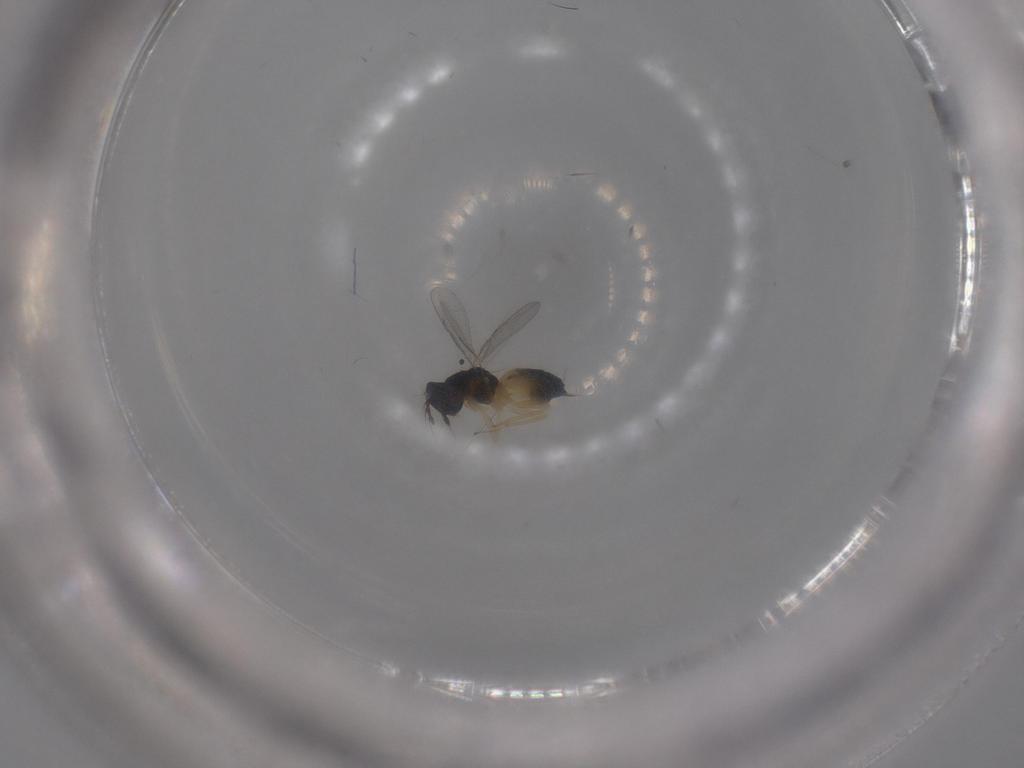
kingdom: Animalia
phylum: Arthropoda
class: Insecta
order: Hymenoptera
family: Eulophidae
